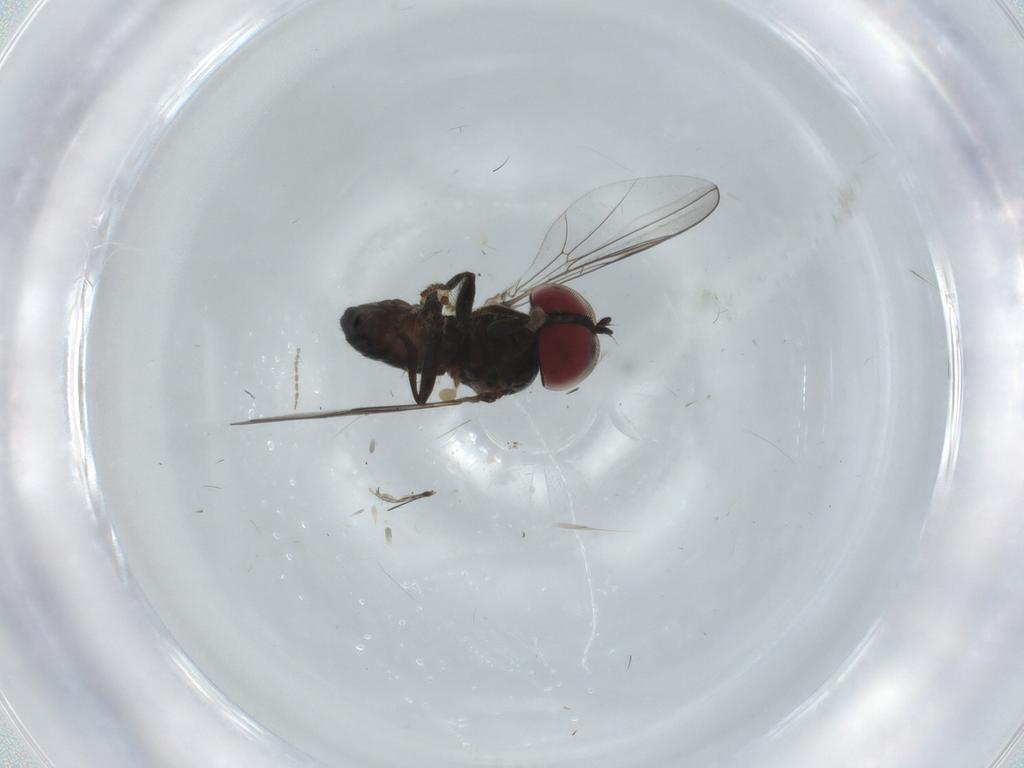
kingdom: Animalia
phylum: Arthropoda
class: Insecta
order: Diptera
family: Pipunculidae
